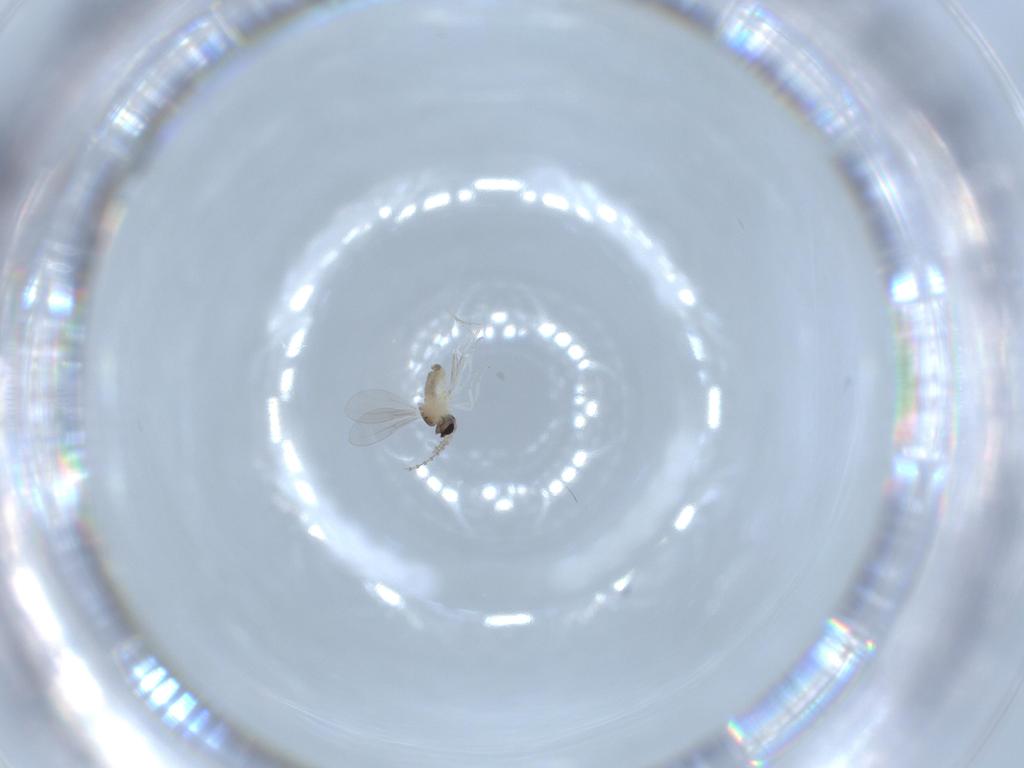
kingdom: Animalia
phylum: Arthropoda
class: Insecta
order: Diptera
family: Cecidomyiidae
